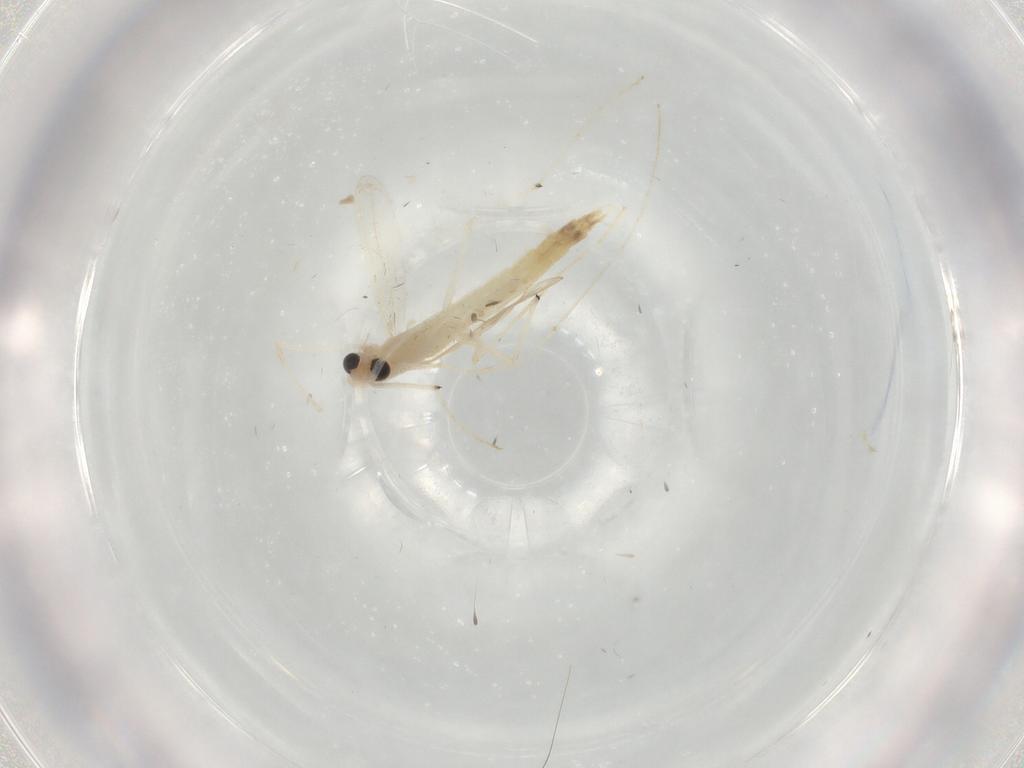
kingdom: Animalia
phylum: Arthropoda
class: Insecta
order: Diptera
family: Chironomidae
